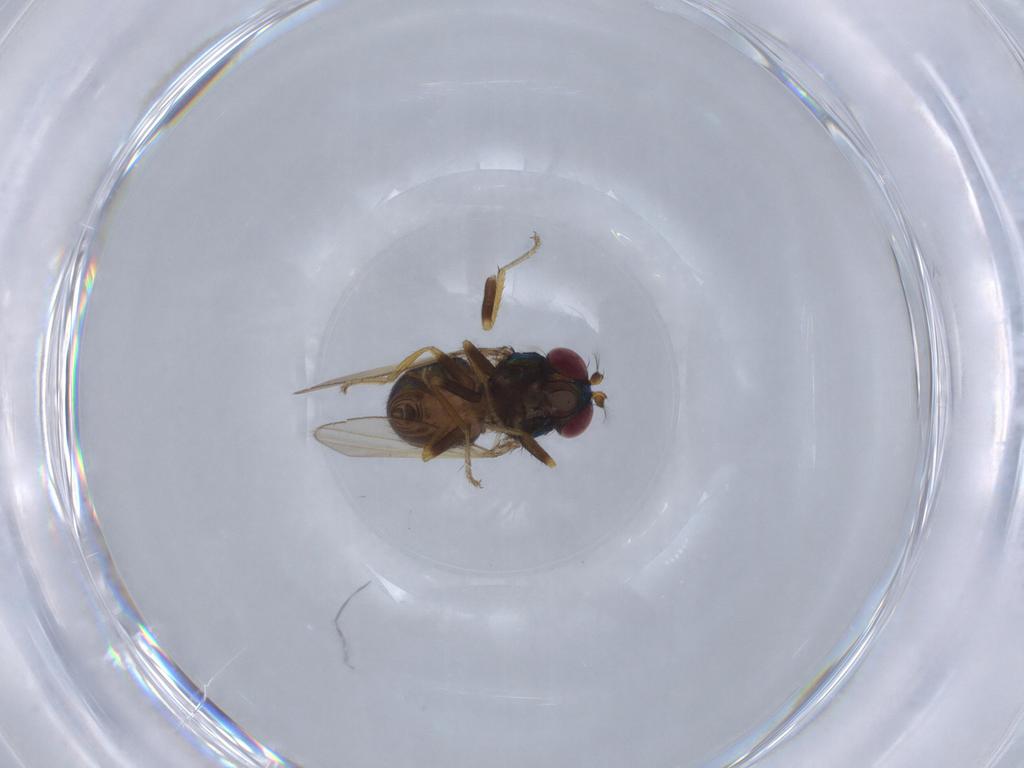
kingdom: Animalia
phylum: Arthropoda
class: Insecta
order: Diptera
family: Ephydridae
